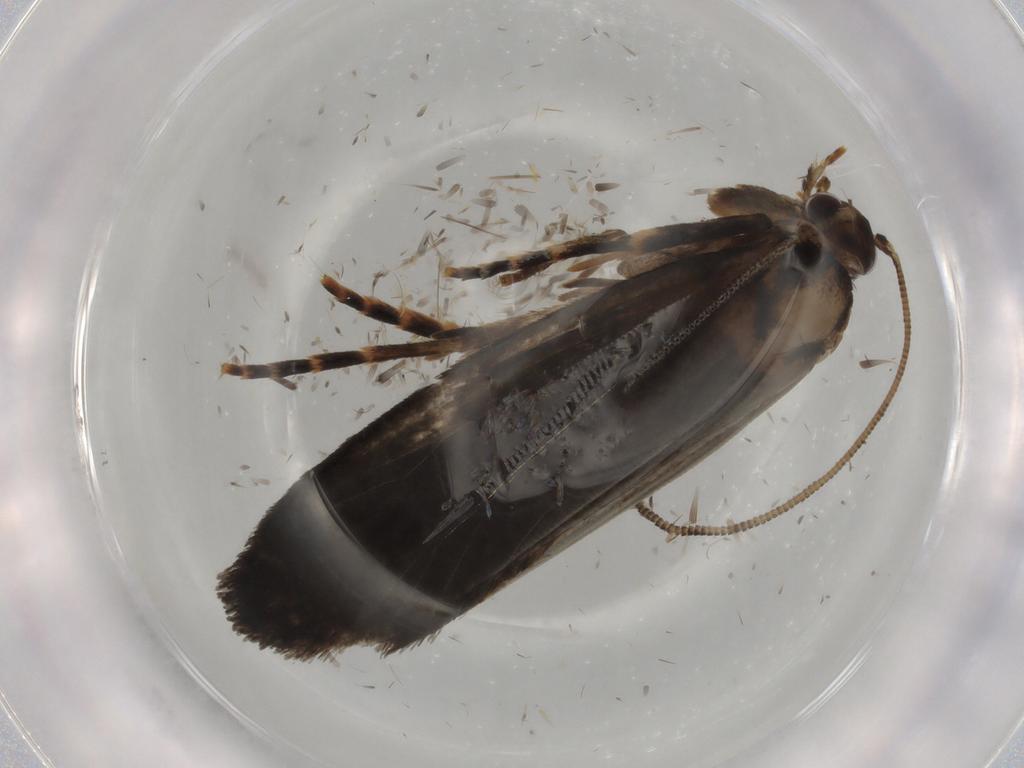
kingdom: Animalia
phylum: Arthropoda
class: Insecta
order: Lepidoptera
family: Tineidae
